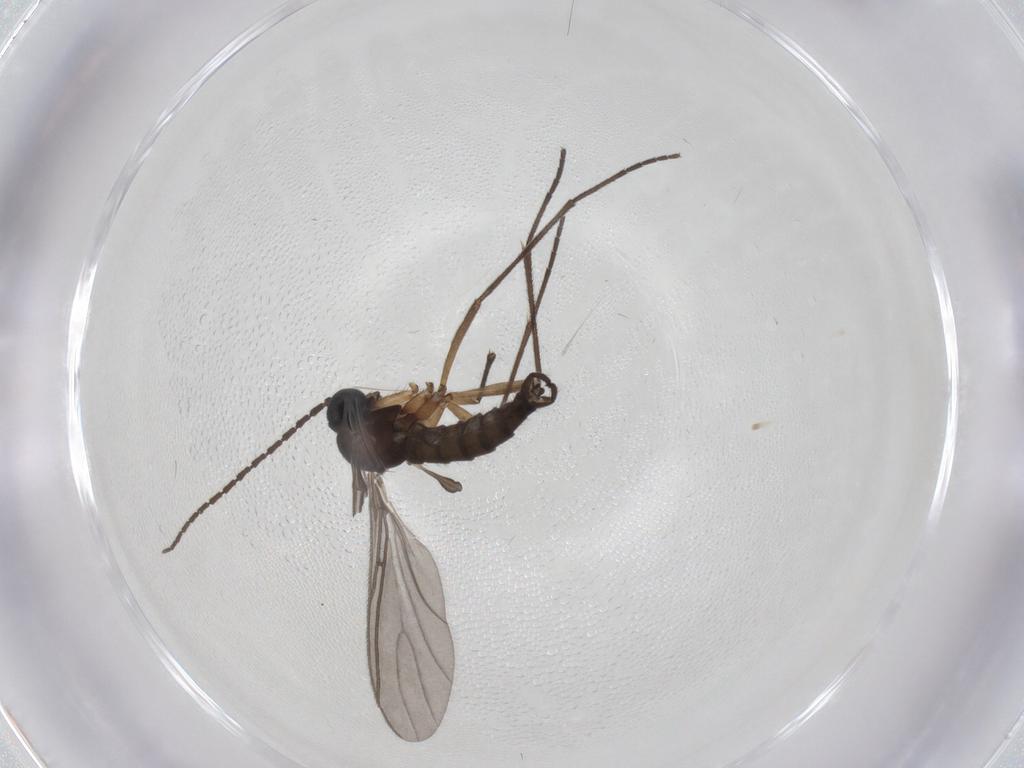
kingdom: Animalia
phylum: Arthropoda
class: Insecta
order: Diptera
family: Sciaridae
